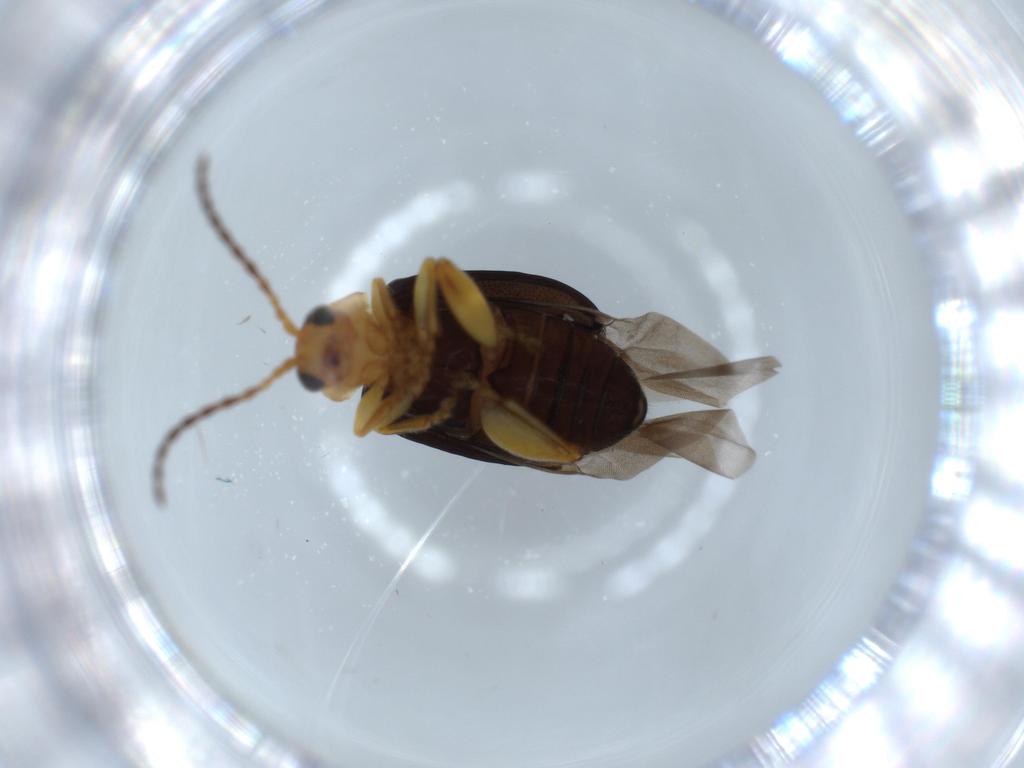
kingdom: Animalia
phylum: Arthropoda
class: Insecta
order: Coleoptera
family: Chrysomelidae
